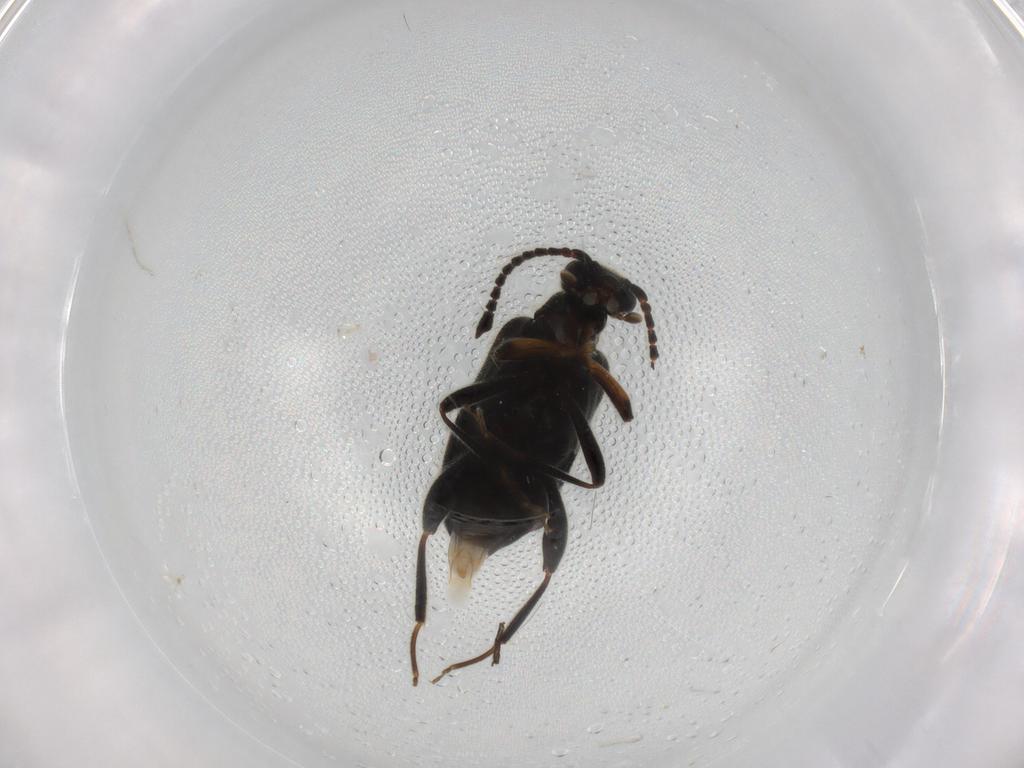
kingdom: Animalia
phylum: Arthropoda
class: Insecta
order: Coleoptera
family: Aderidae
